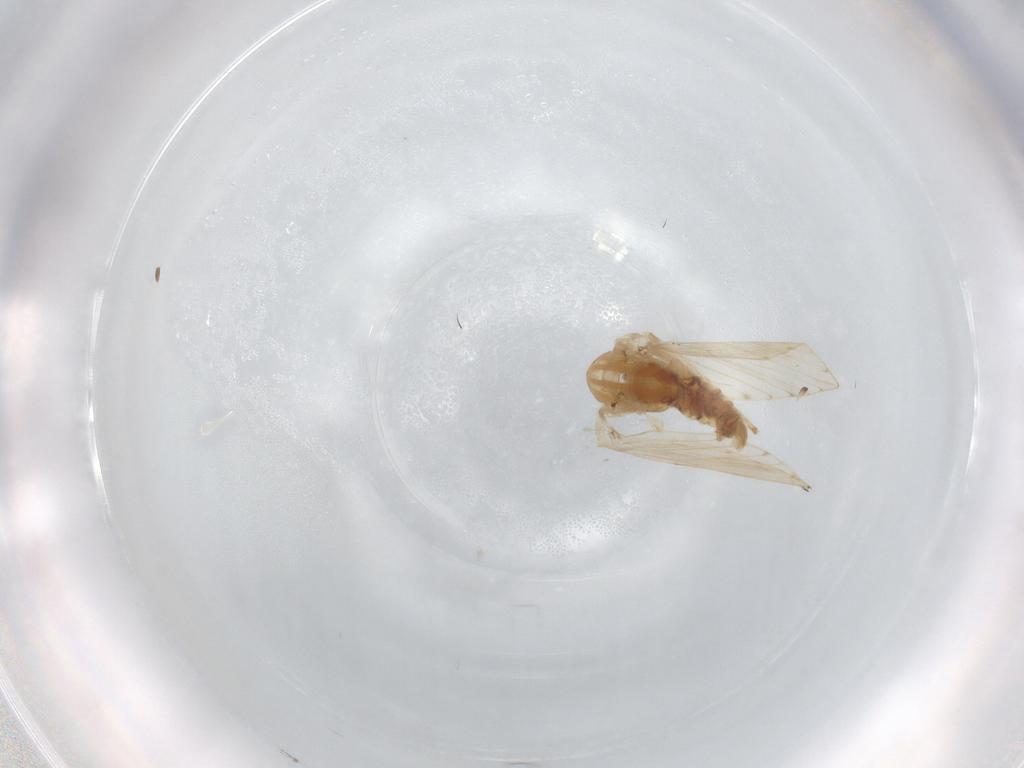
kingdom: Animalia
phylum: Arthropoda
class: Insecta
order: Diptera
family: Psychodidae
